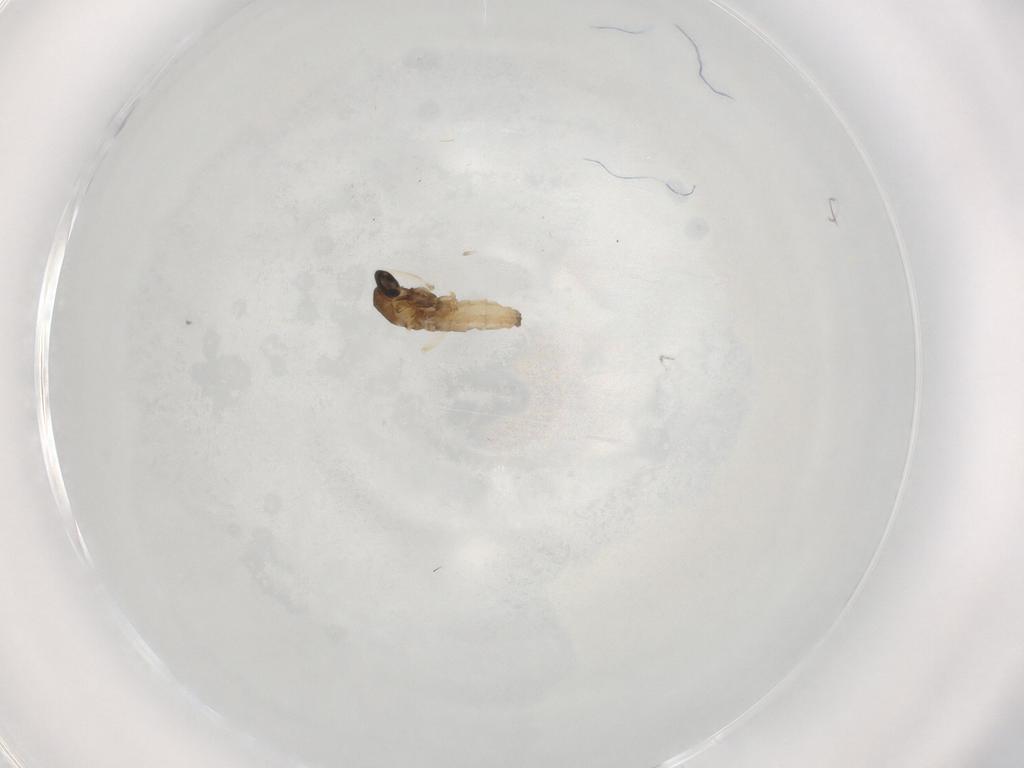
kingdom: Animalia
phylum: Arthropoda
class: Insecta
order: Diptera
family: Cecidomyiidae
